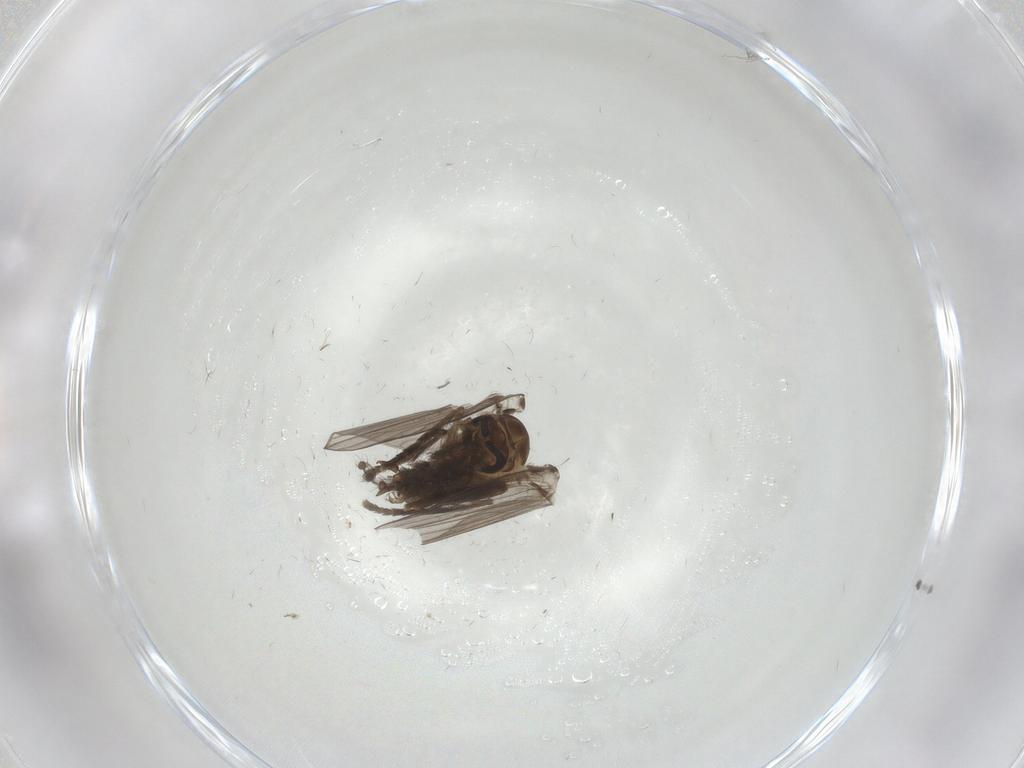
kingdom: Animalia
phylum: Arthropoda
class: Insecta
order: Diptera
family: Psychodidae
